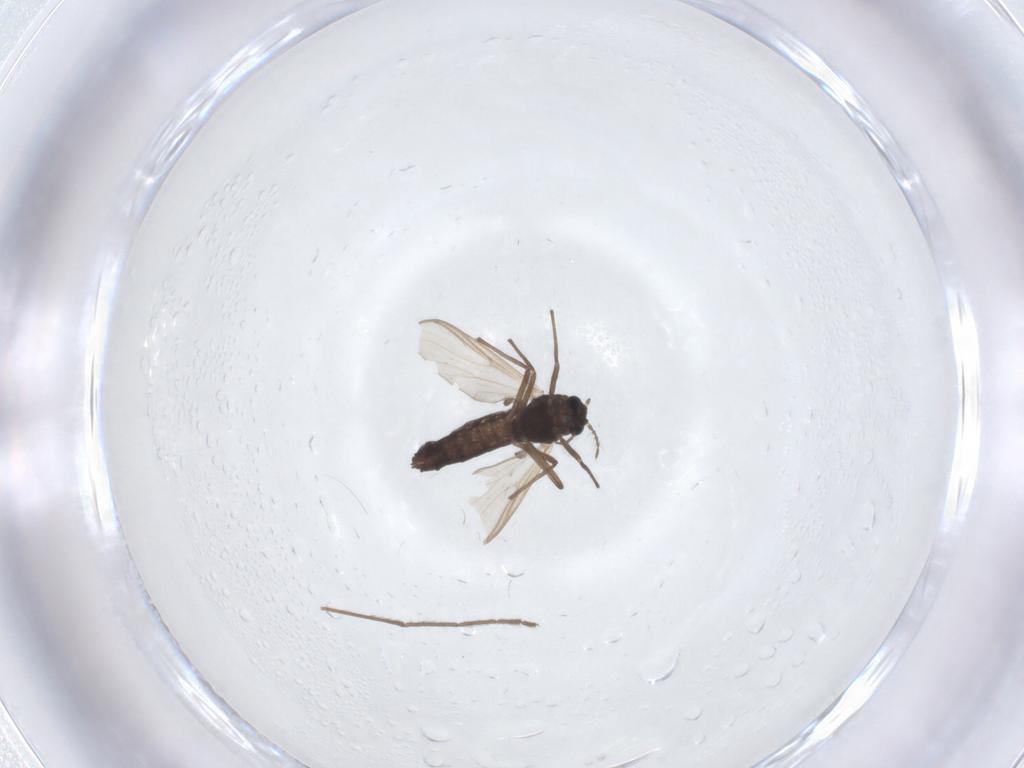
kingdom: Animalia
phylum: Arthropoda
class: Insecta
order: Diptera
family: Chironomidae
